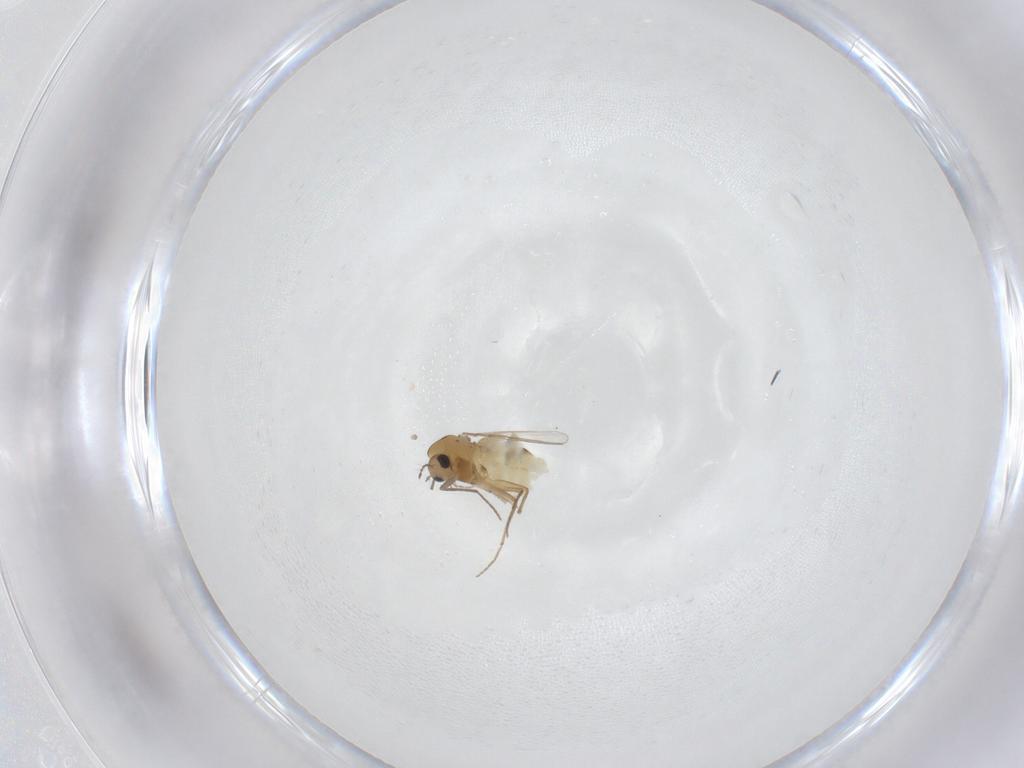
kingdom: Animalia
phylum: Arthropoda
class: Insecta
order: Diptera
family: Chironomidae
